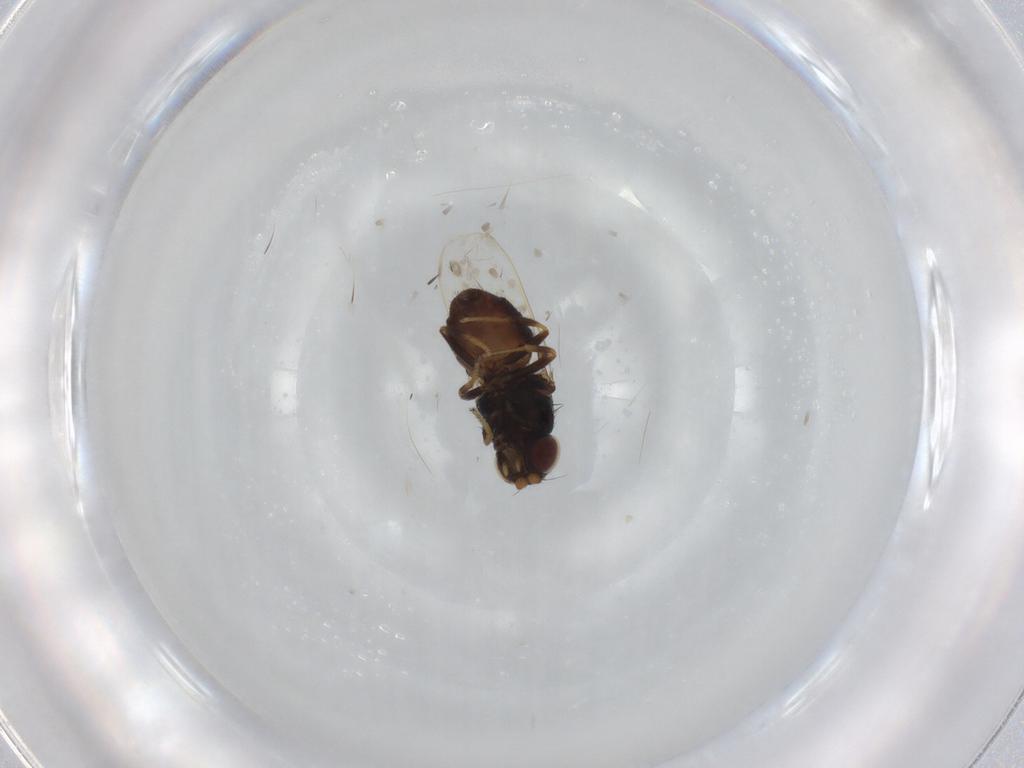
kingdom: Animalia
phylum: Arthropoda
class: Insecta
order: Diptera
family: Chloropidae
